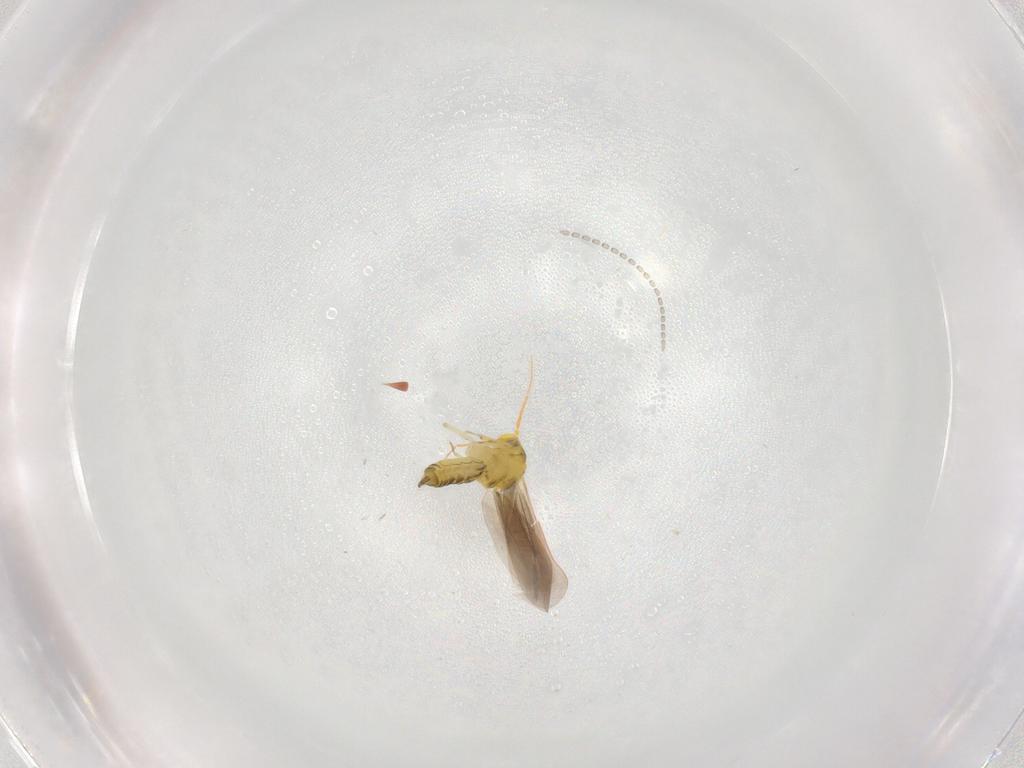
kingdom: Animalia
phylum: Arthropoda
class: Insecta
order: Hemiptera
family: Cicadellidae
